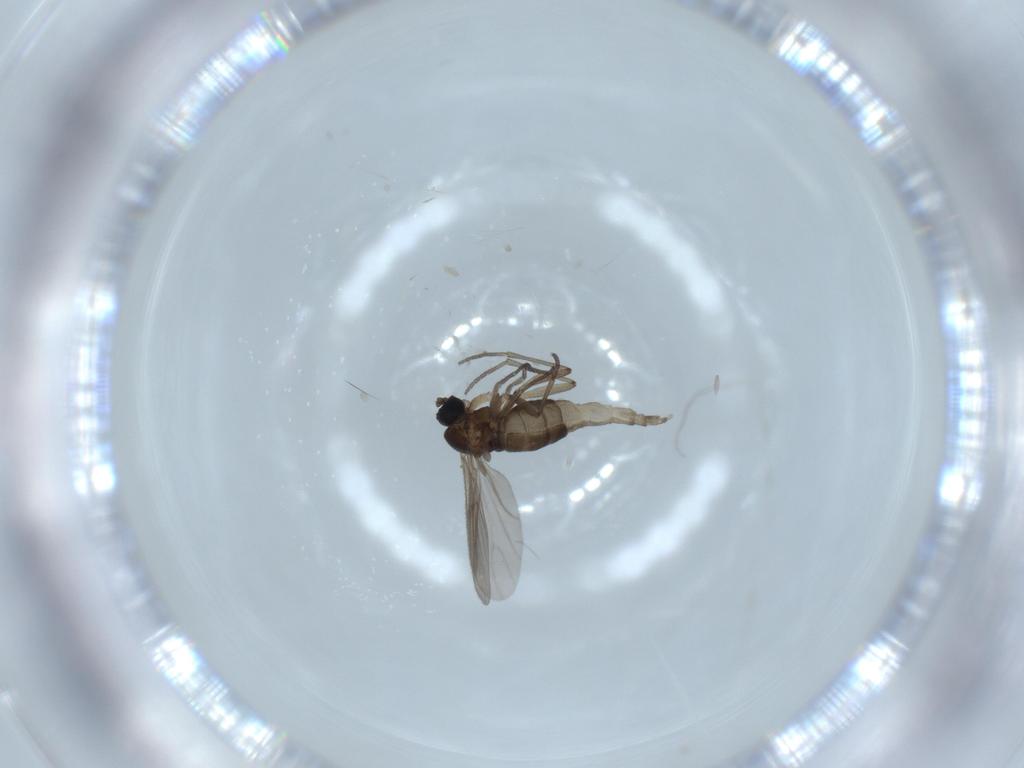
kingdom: Animalia
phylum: Arthropoda
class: Insecta
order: Diptera
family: Sciaridae
